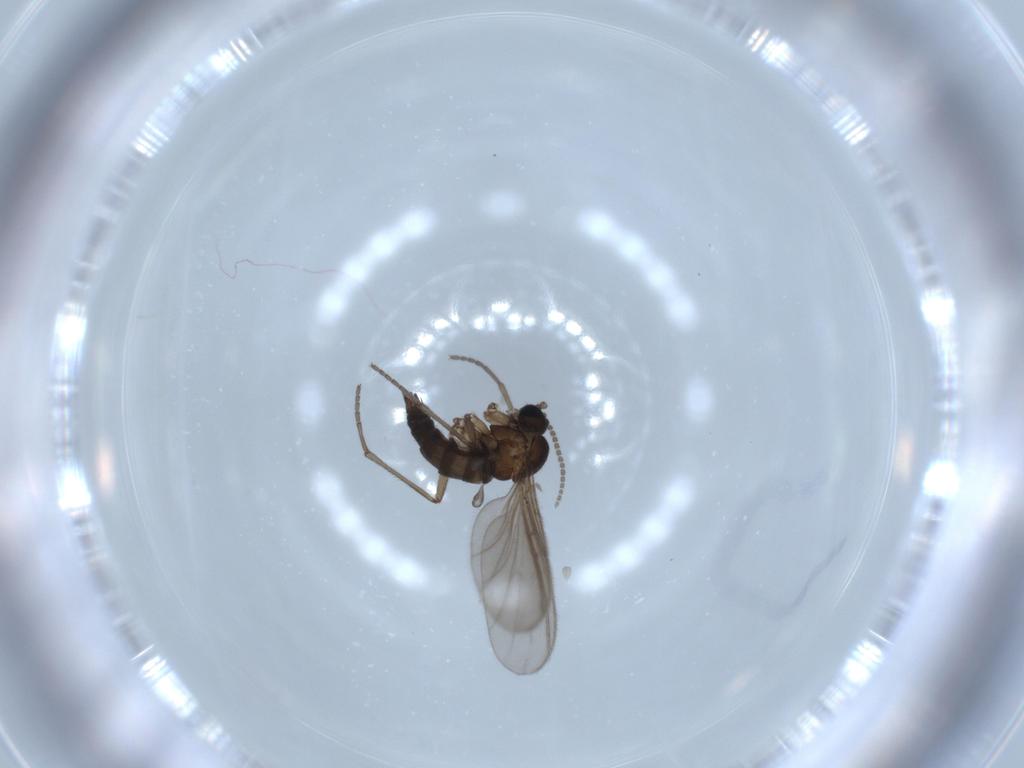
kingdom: Animalia
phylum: Arthropoda
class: Insecta
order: Diptera
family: Sciaridae
